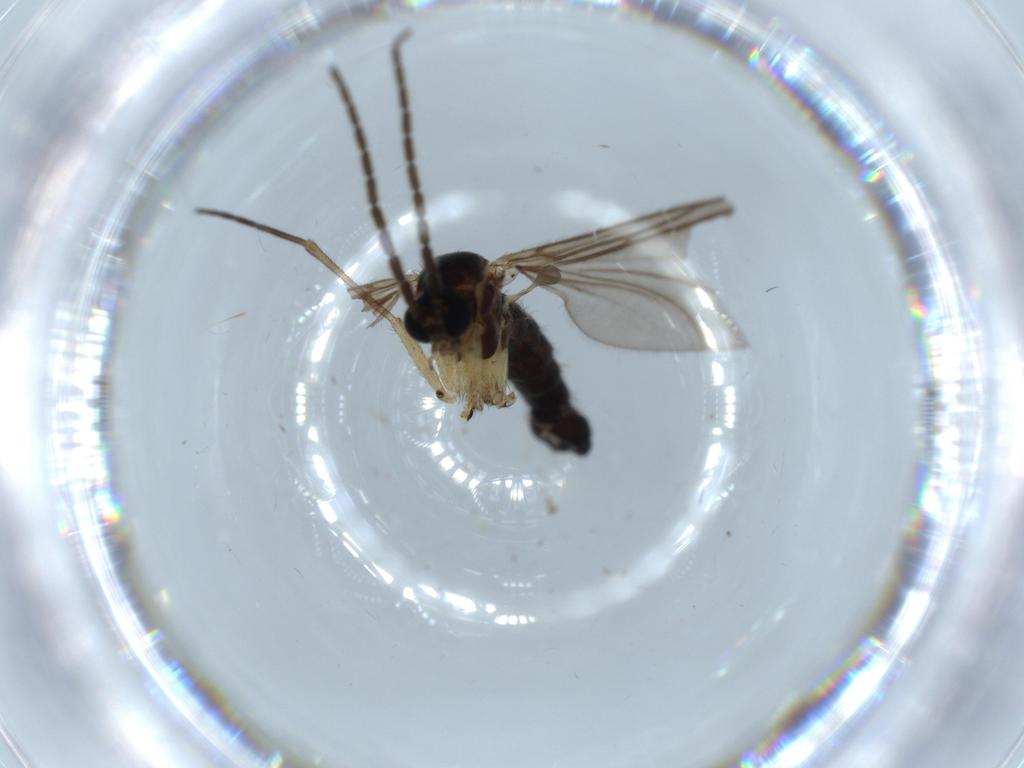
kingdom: Animalia
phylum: Arthropoda
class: Insecta
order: Diptera
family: Sciaridae
